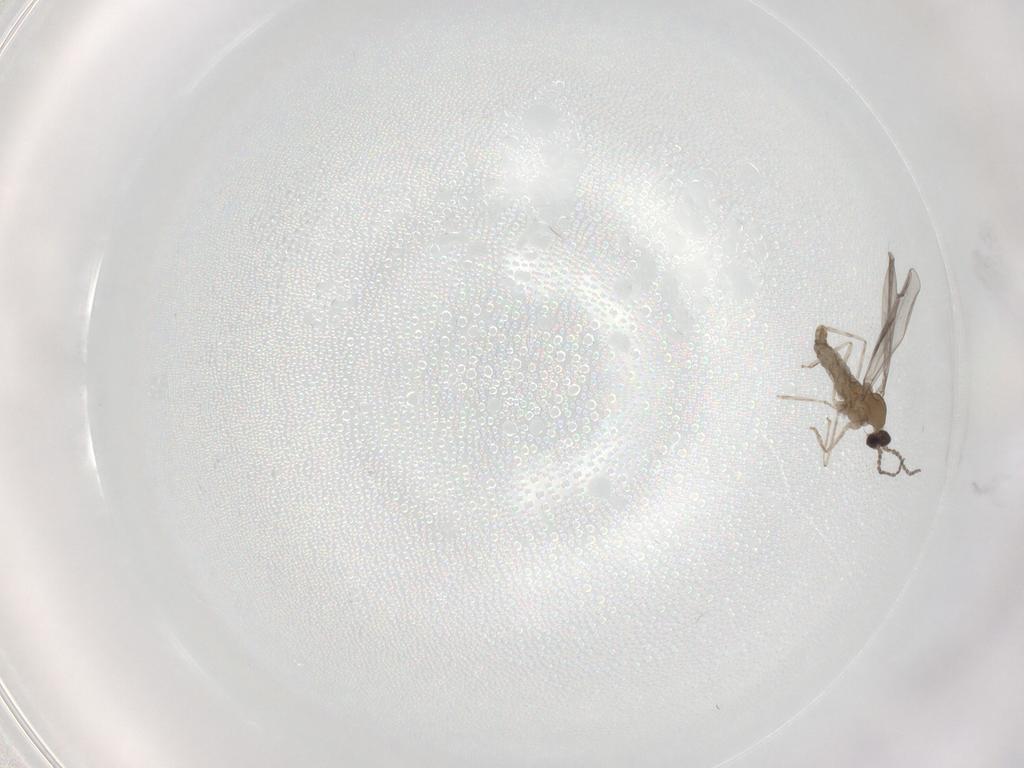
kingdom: Animalia
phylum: Arthropoda
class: Insecta
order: Diptera
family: Cecidomyiidae
